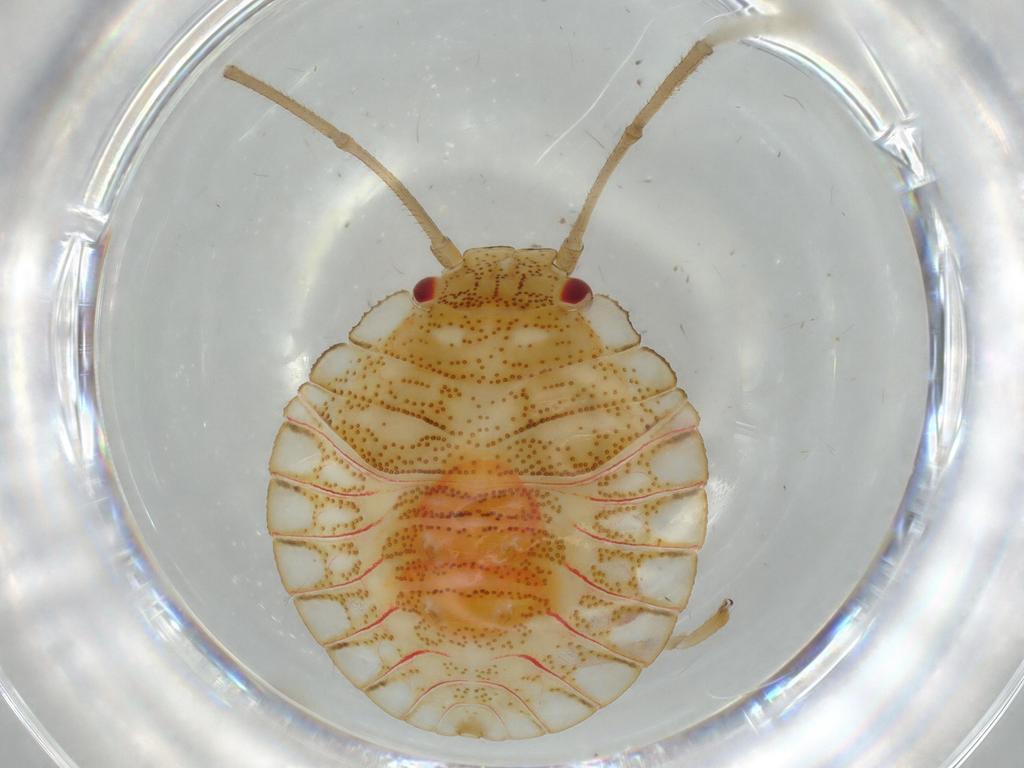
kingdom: Animalia
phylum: Arthropoda
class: Insecta
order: Hemiptera
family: Pentatomidae
